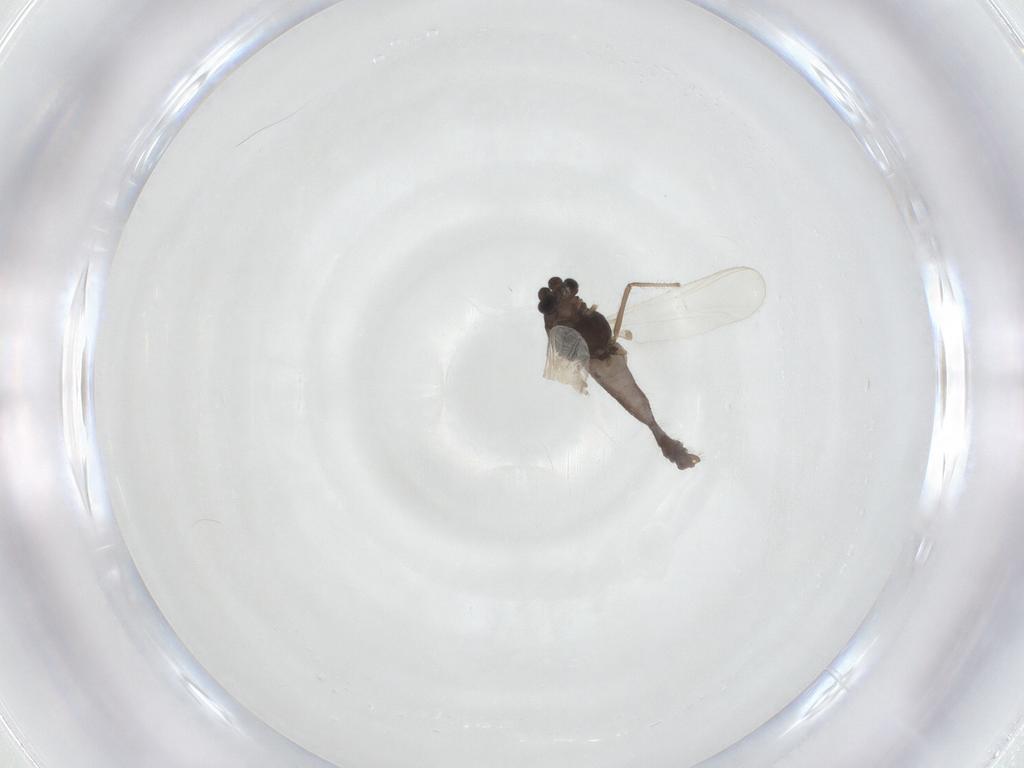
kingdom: Animalia
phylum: Arthropoda
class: Insecta
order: Diptera
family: Chironomidae
